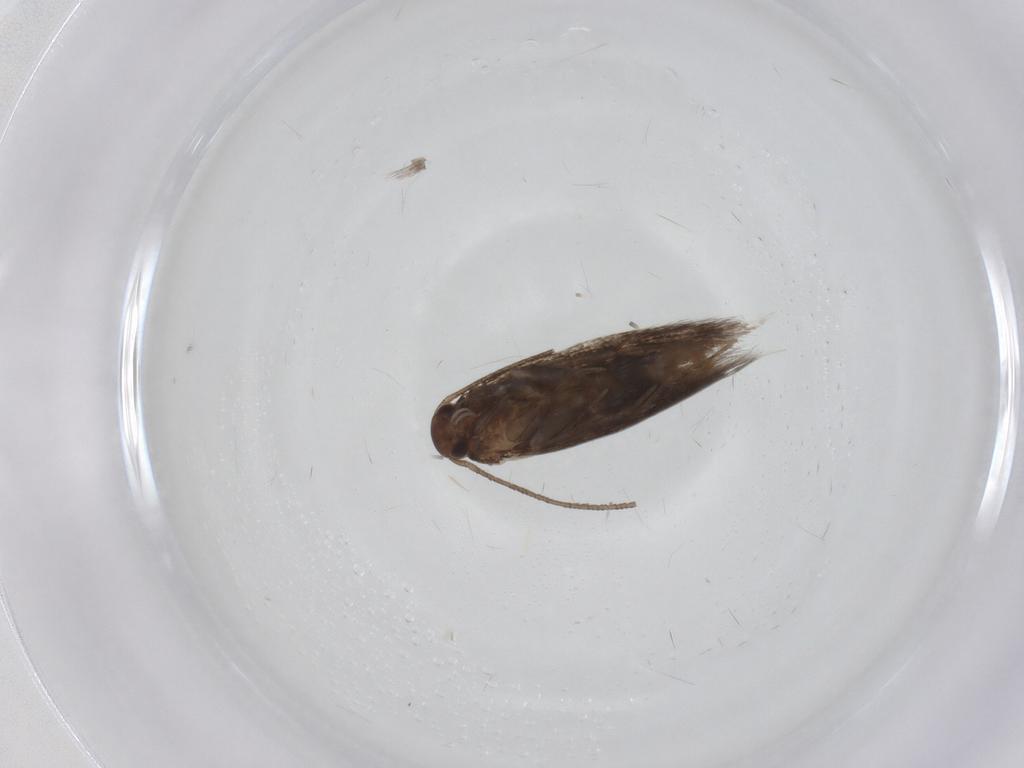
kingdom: Animalia
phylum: Arthropoda
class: Insecta
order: Lepidoptera
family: Elachistidae
